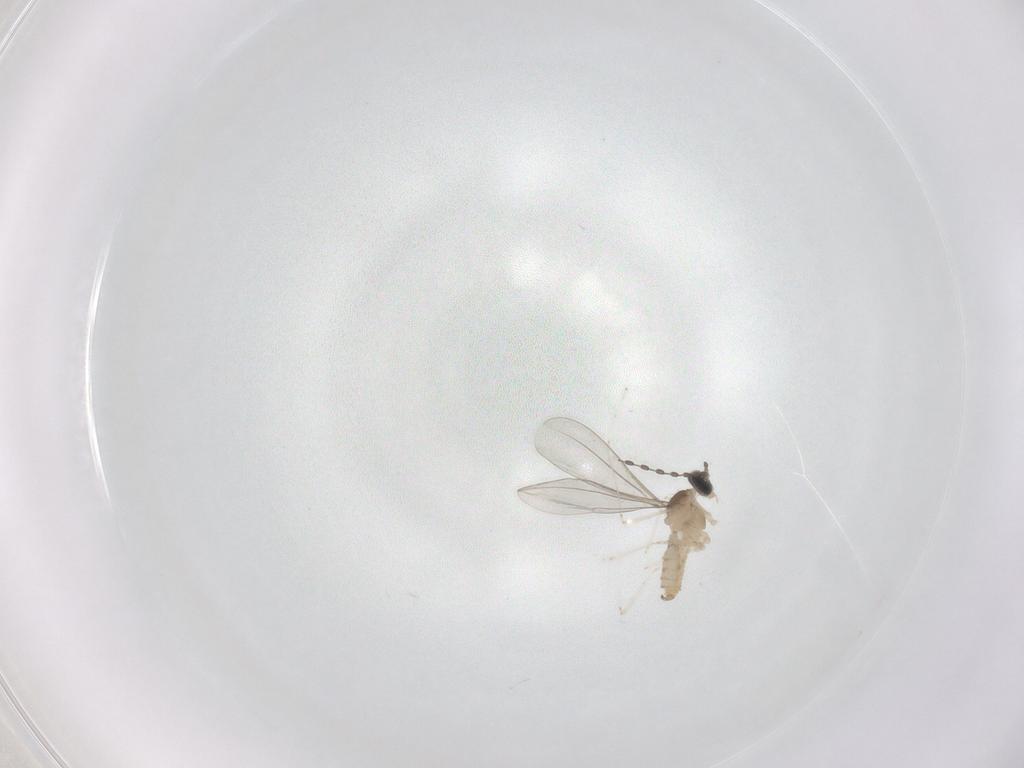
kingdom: Animalia
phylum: Arthropoda
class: Insecta
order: Diptera
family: Cecidomyiidae
